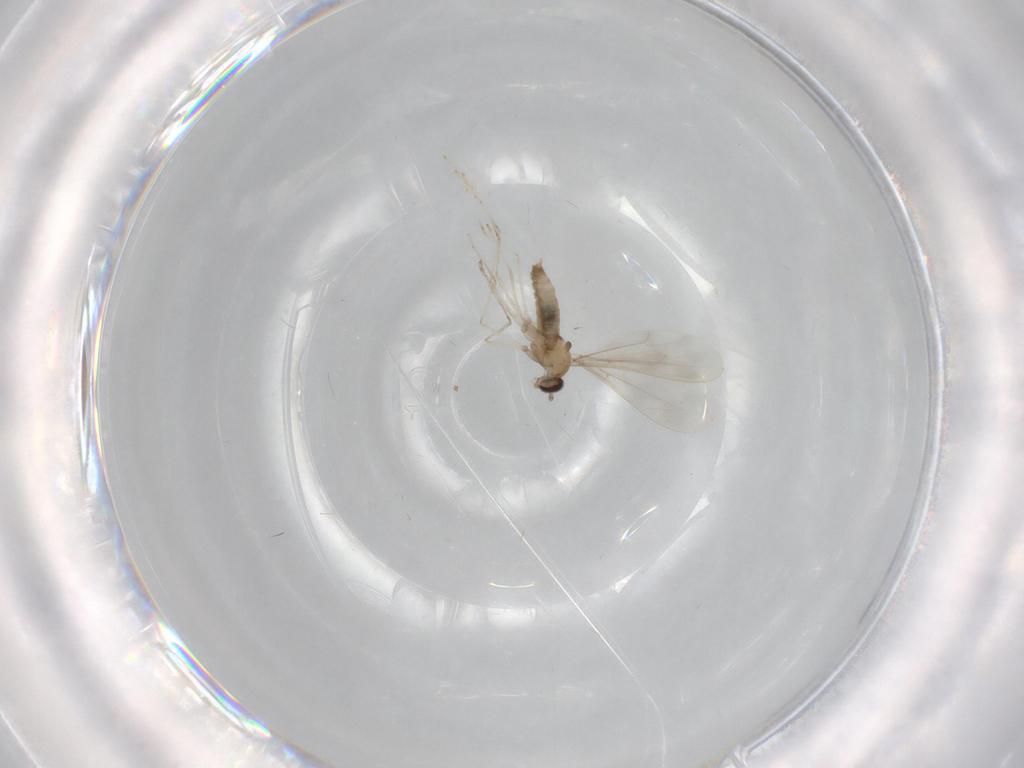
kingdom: Animalia
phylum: Arthropoda
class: Insecta
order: Diptera
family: Cecidomyiidae
